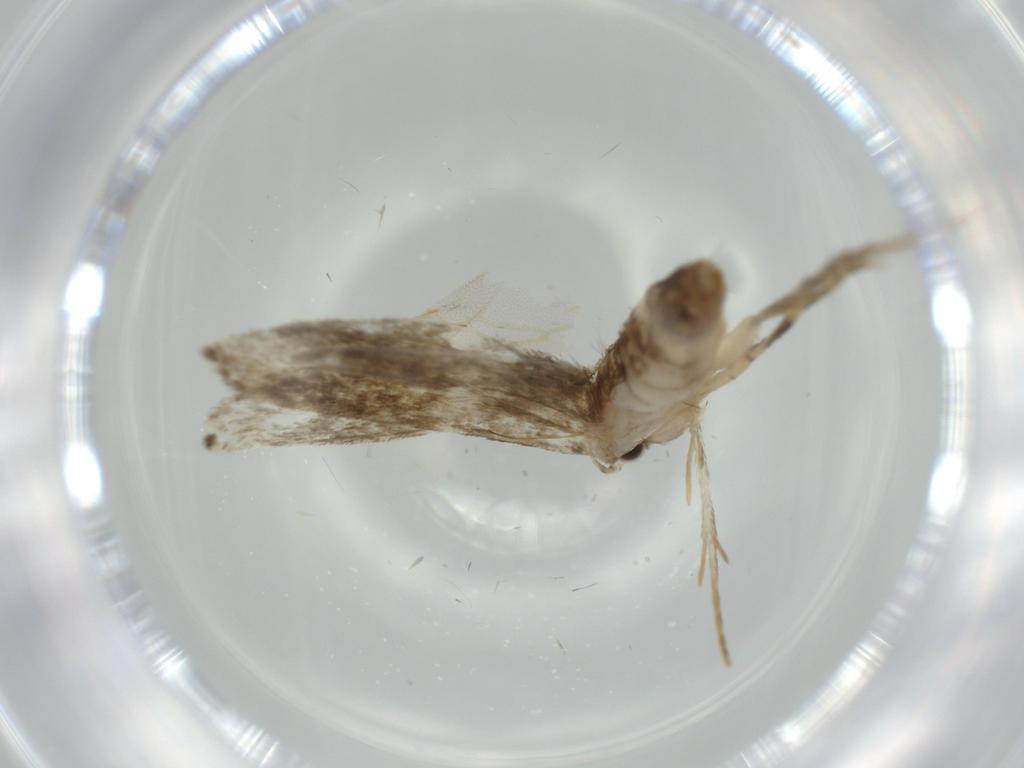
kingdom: Animalia
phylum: Arthropoda
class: Insecta
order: Lepidoptera
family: Tineidae
